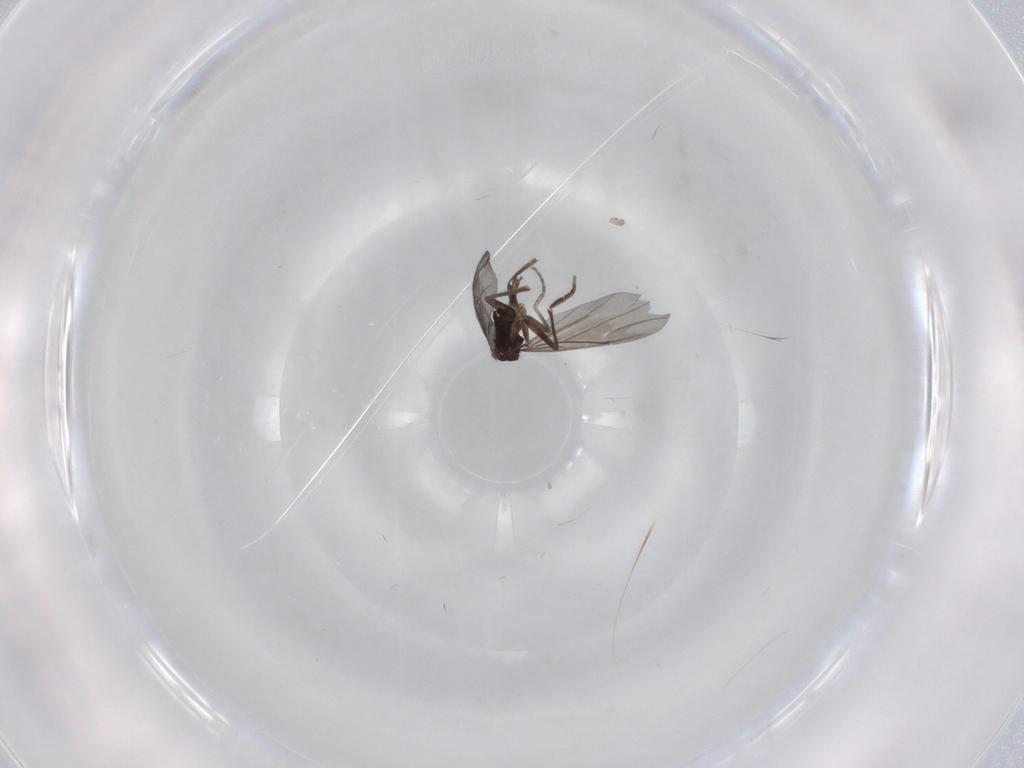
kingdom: Animalia
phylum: Arthropoda
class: Insecta
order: Diptera
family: Phoridae
